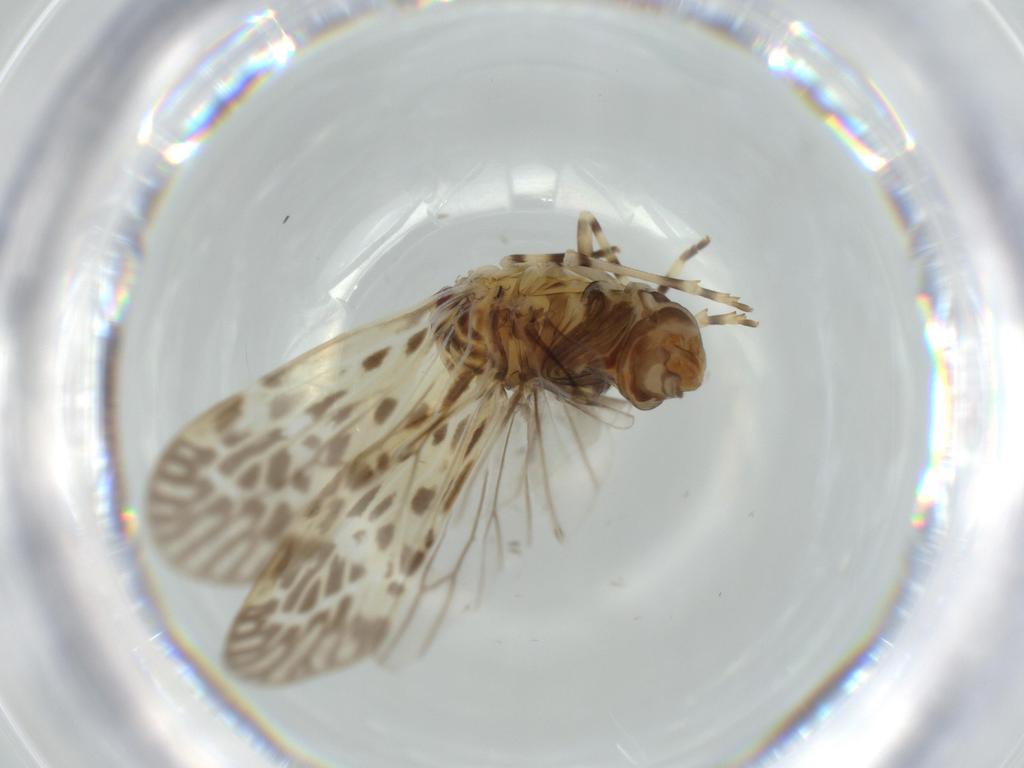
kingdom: Animalia
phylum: Arthropoda
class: Insecta
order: Hemiptera
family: Derbidae
